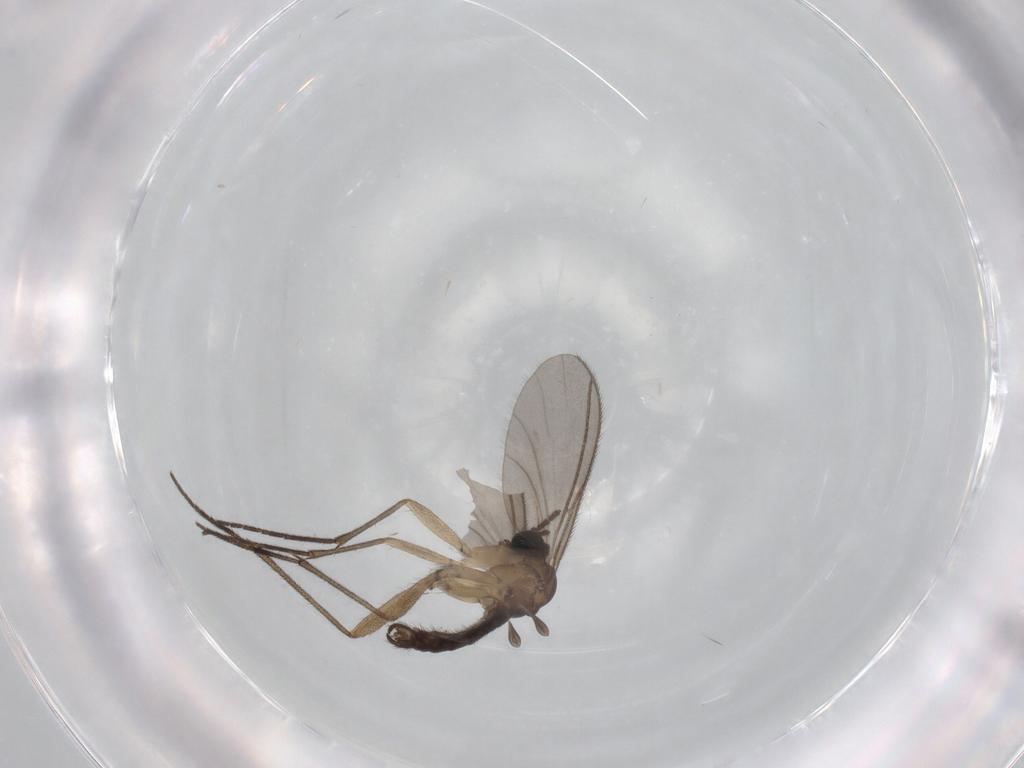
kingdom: Animalia
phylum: Arthropoda
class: Insecta
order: Diptera
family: Sciaridae
